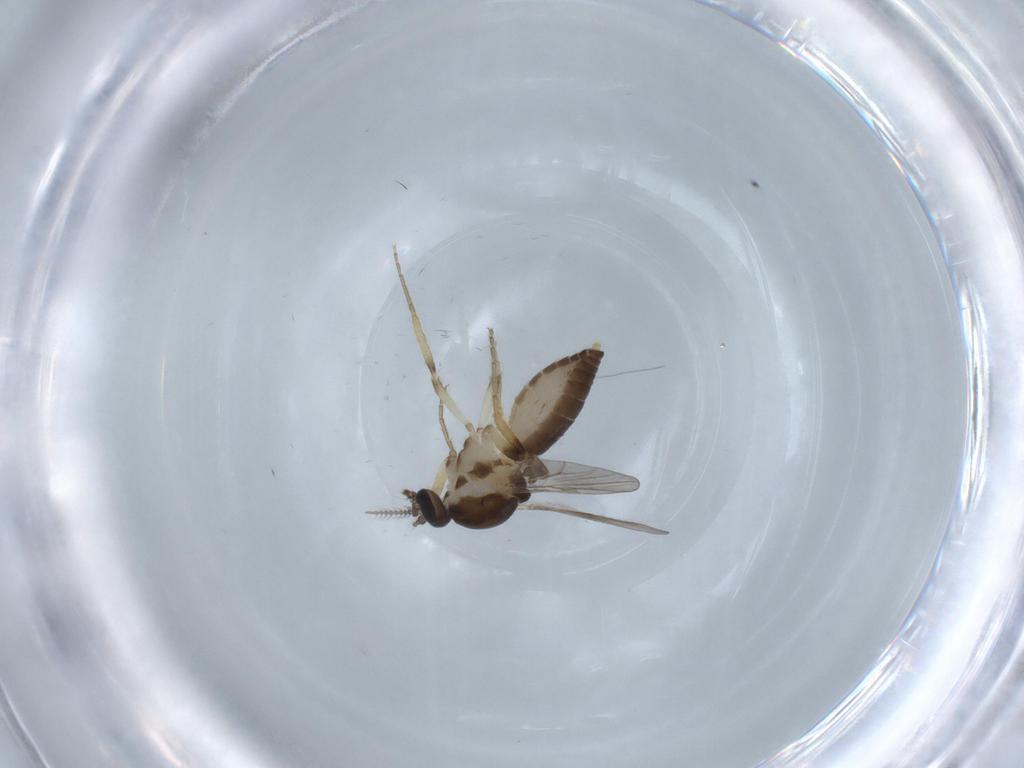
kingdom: Animalia
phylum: Arthropoda
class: Insecta
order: Diptera
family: Ceratopogonidae
